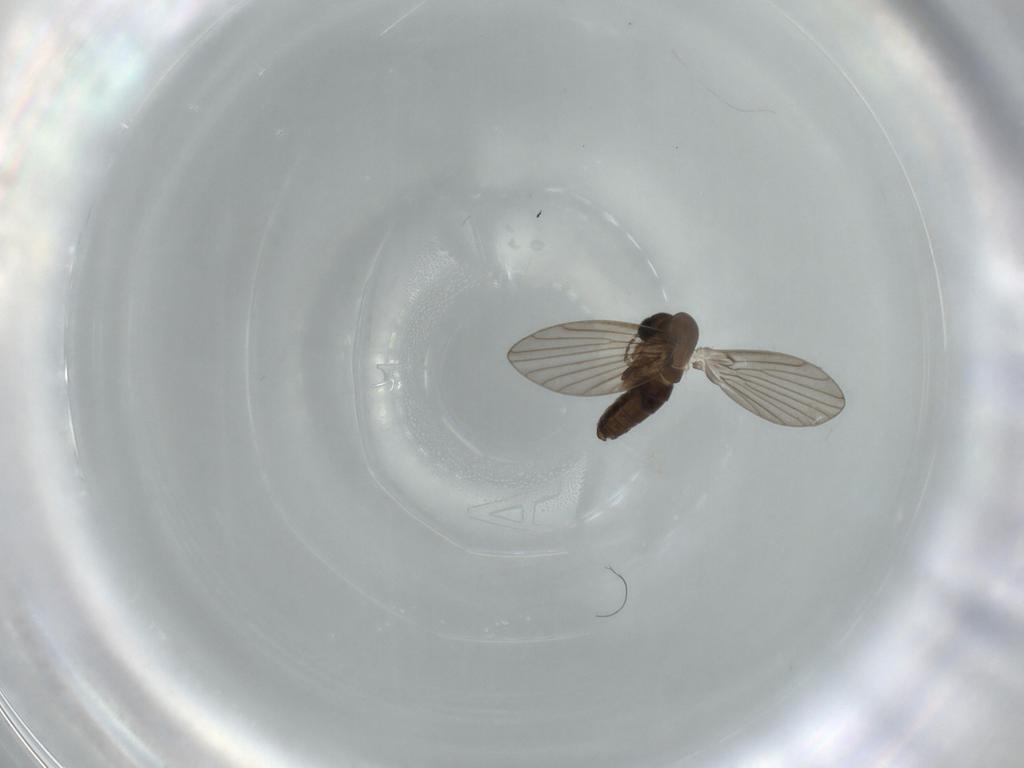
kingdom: Animalia
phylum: Arthropoda
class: Insecta
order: Diptera
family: Psychodidae
